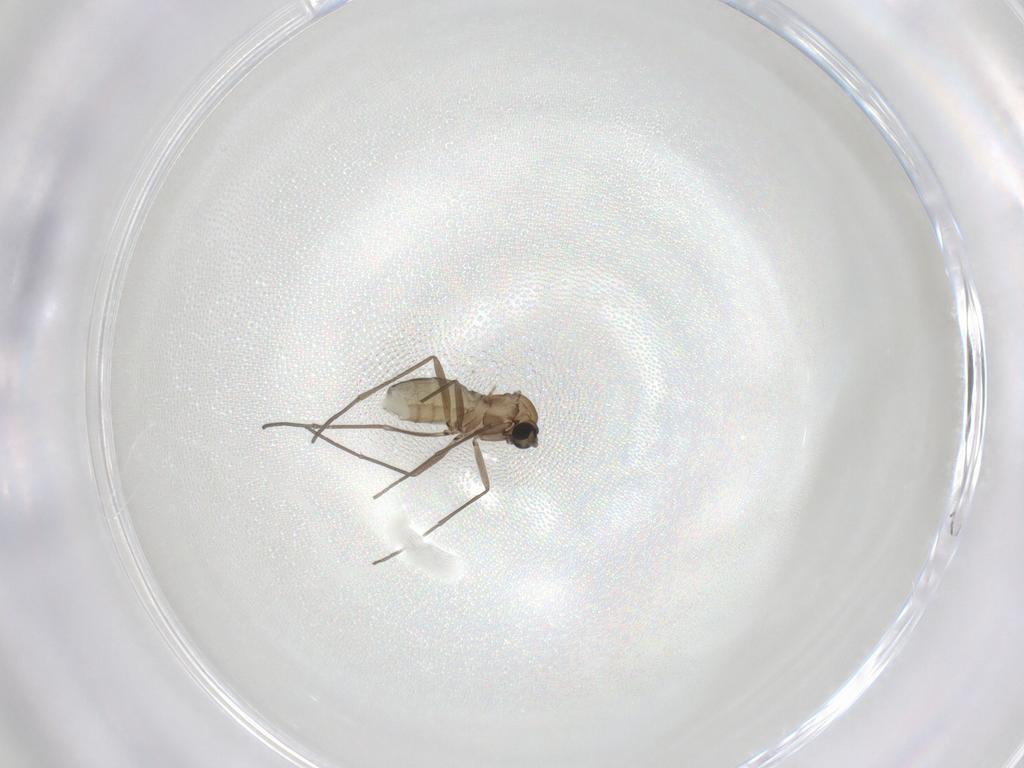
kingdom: Animalia
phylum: Arthropoda
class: Insecta
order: Diptera
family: Sciaridae
